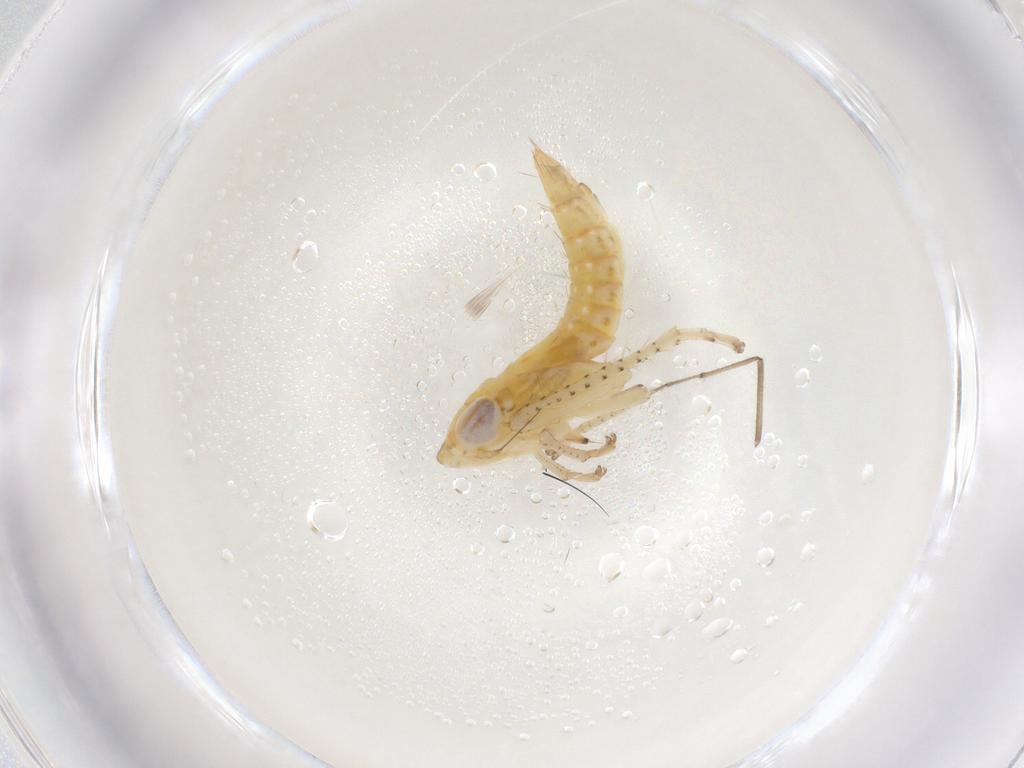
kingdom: Animalia
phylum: Arthropoda
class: Insecta
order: Hemiptera
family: Cicadellidae
